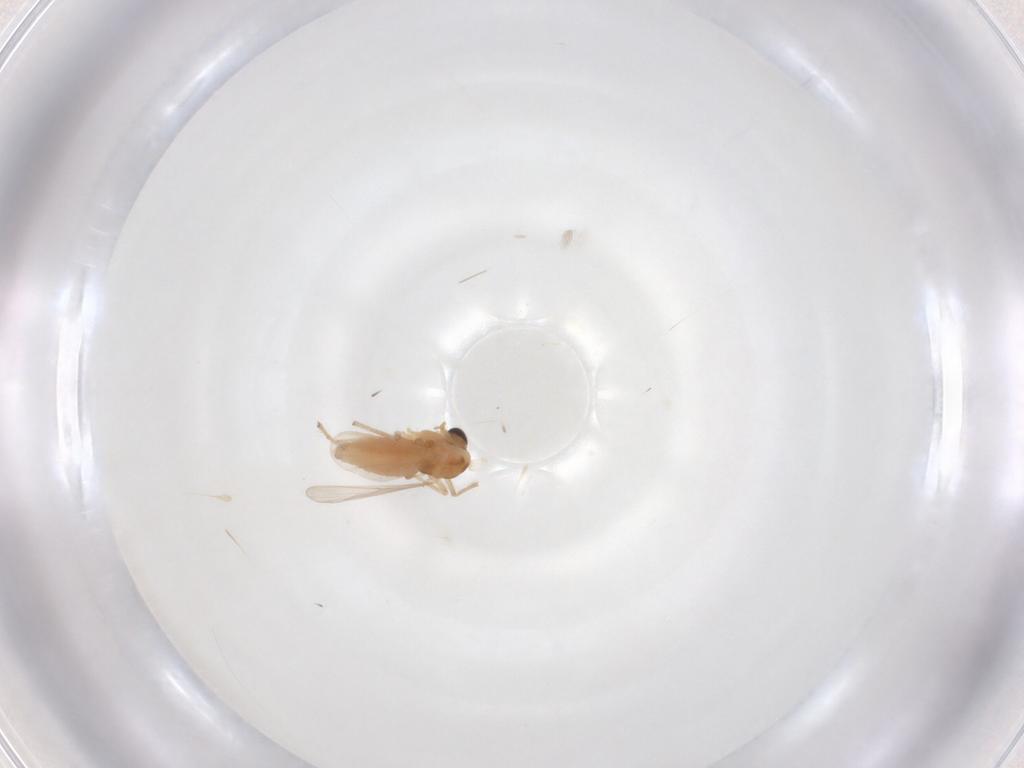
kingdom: Animalia
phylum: Arthropoda
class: Insecta
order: Diptera
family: Chironomidae
